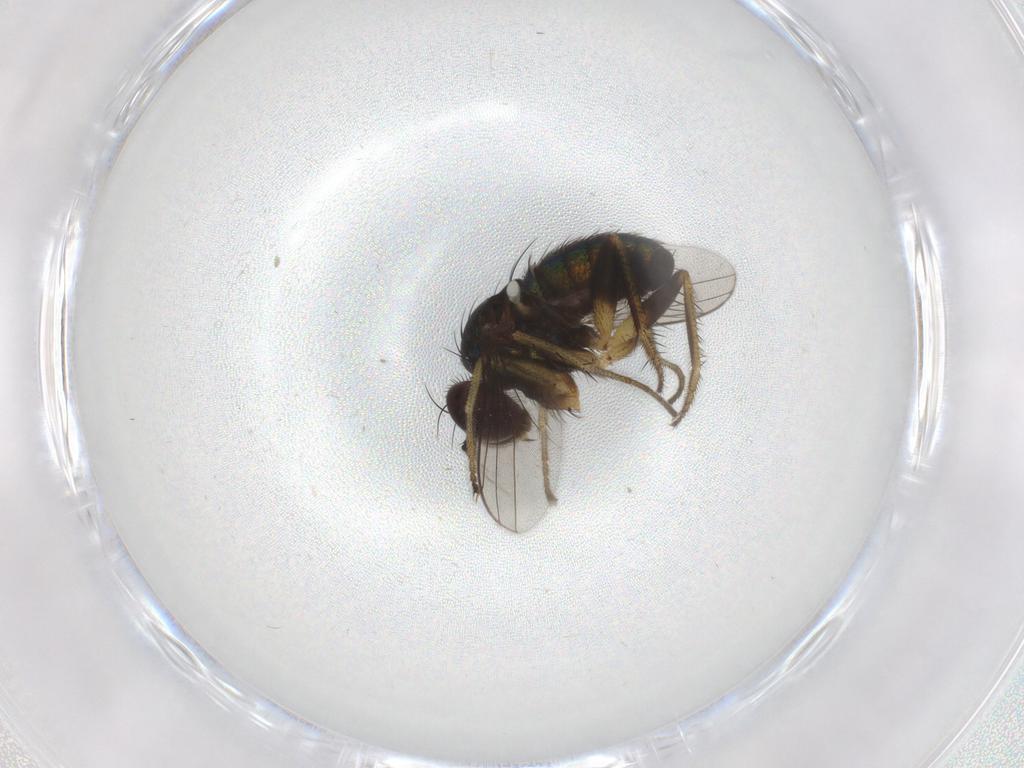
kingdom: Animalia
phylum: Arthropoda
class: Insecta
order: Diptera
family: Dolichopodidae
